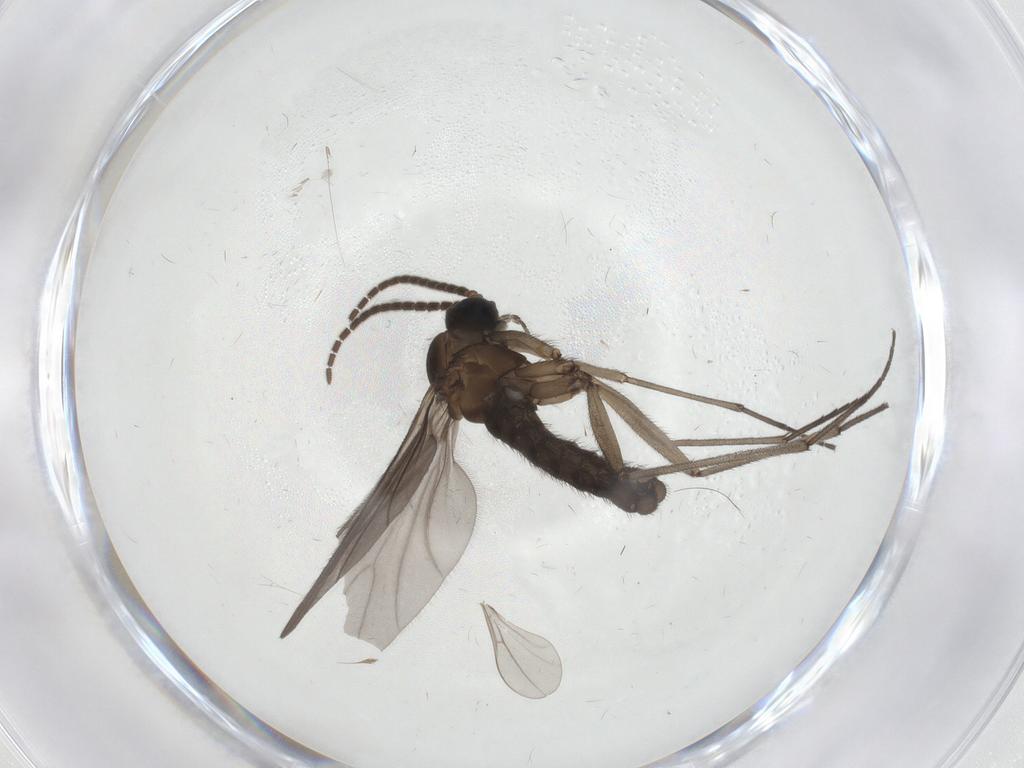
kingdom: Animalia
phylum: Arthropoda
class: Insecta
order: Diptera
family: Sciaridae
